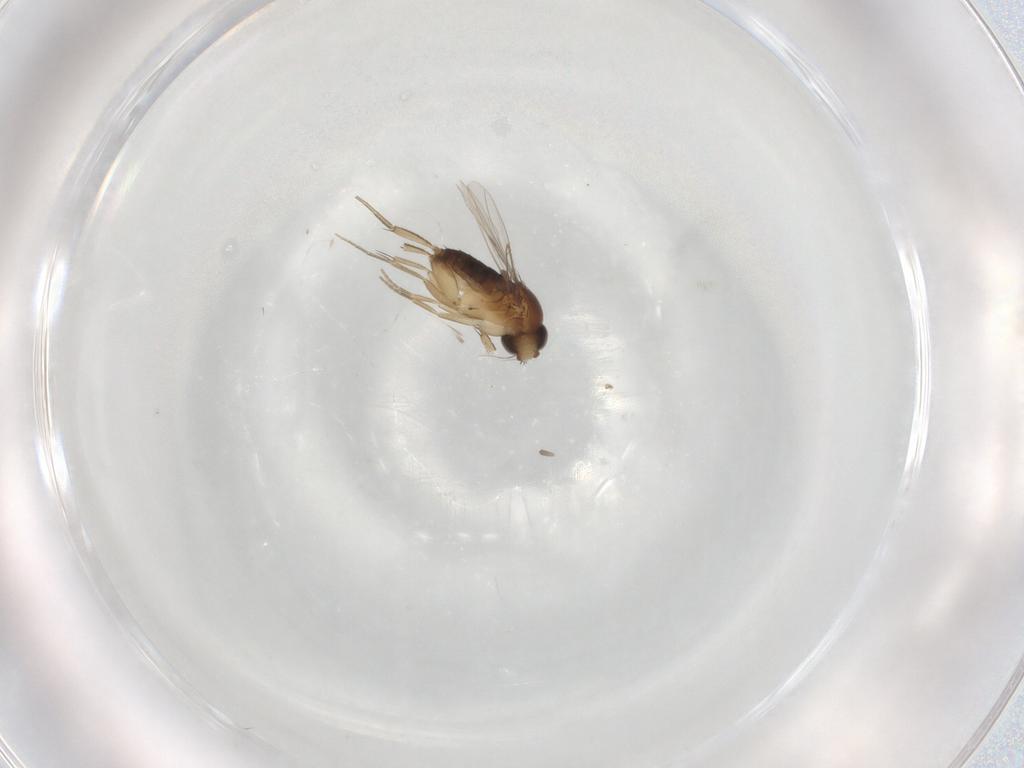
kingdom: Animalia
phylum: Arthropoda
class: Insecta
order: Diptera
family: Phoridae
